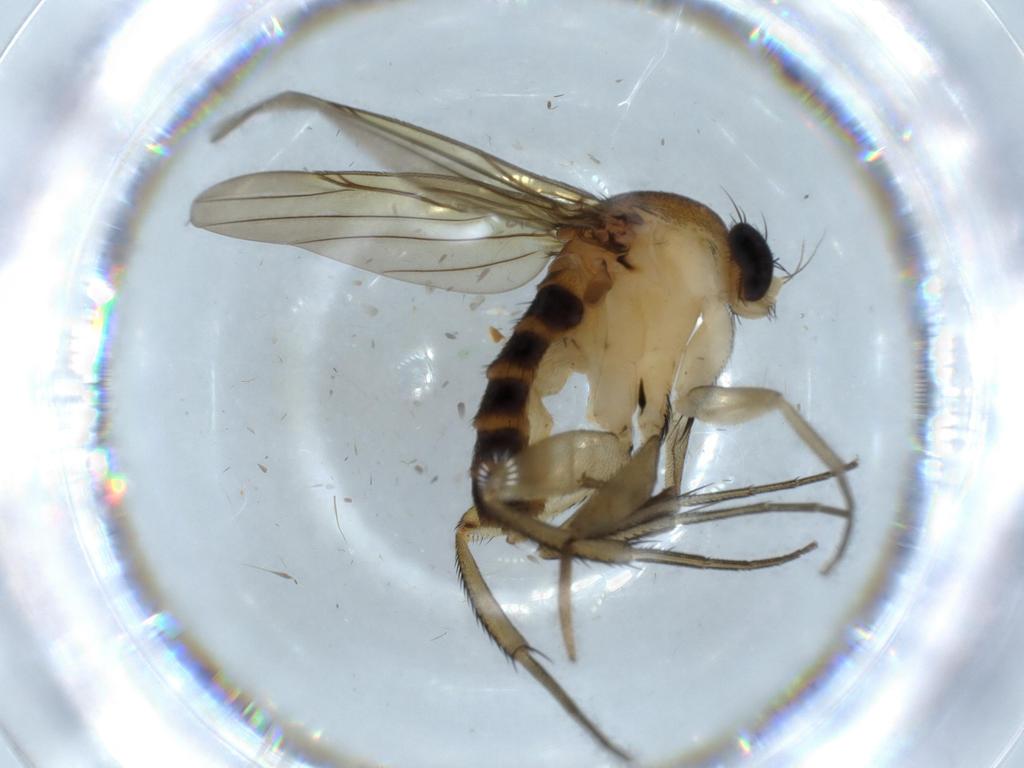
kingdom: Animalia
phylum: Arthropoda
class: Insecta
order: Diptera
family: Ceratopogonidae
